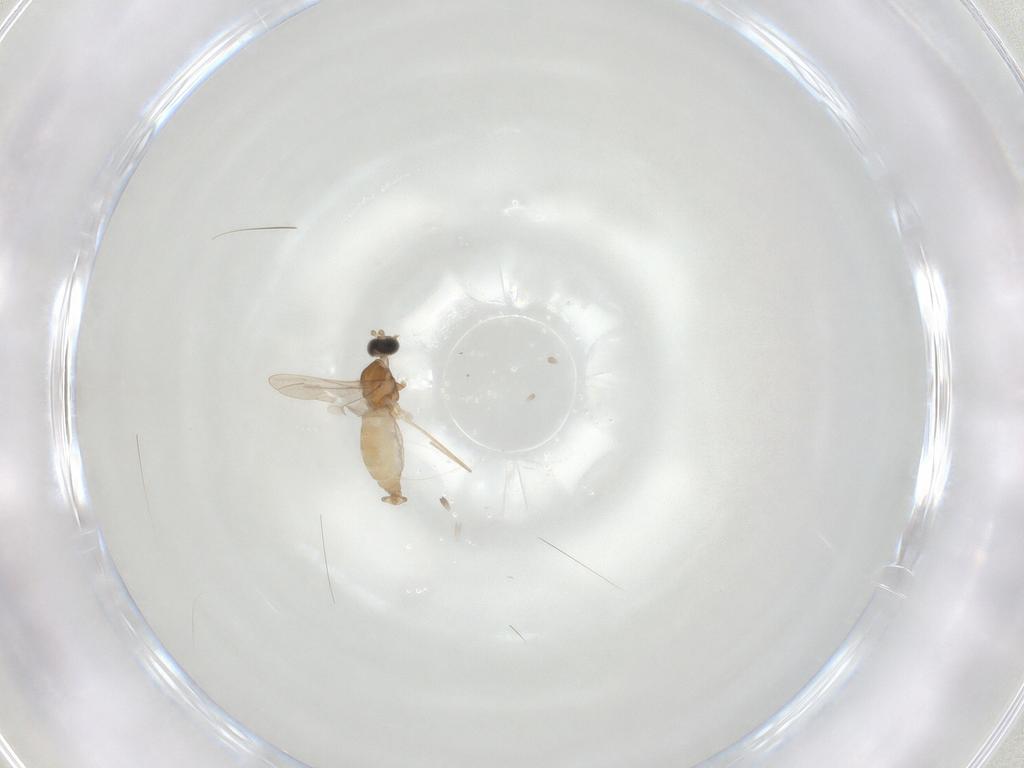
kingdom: Animalia
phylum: Arthropoda
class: Insecta
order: Diptera
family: Cecidomyiidae
